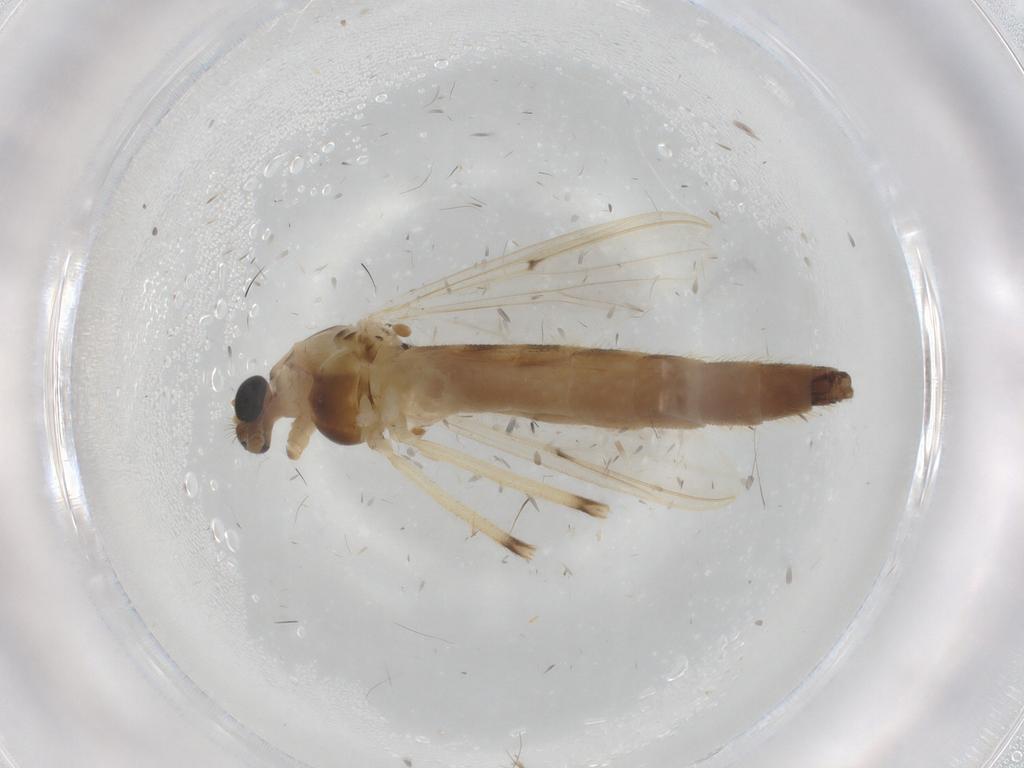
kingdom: Animalia
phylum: Arthropoda
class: Insecta
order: Diptera
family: Chironomidae
